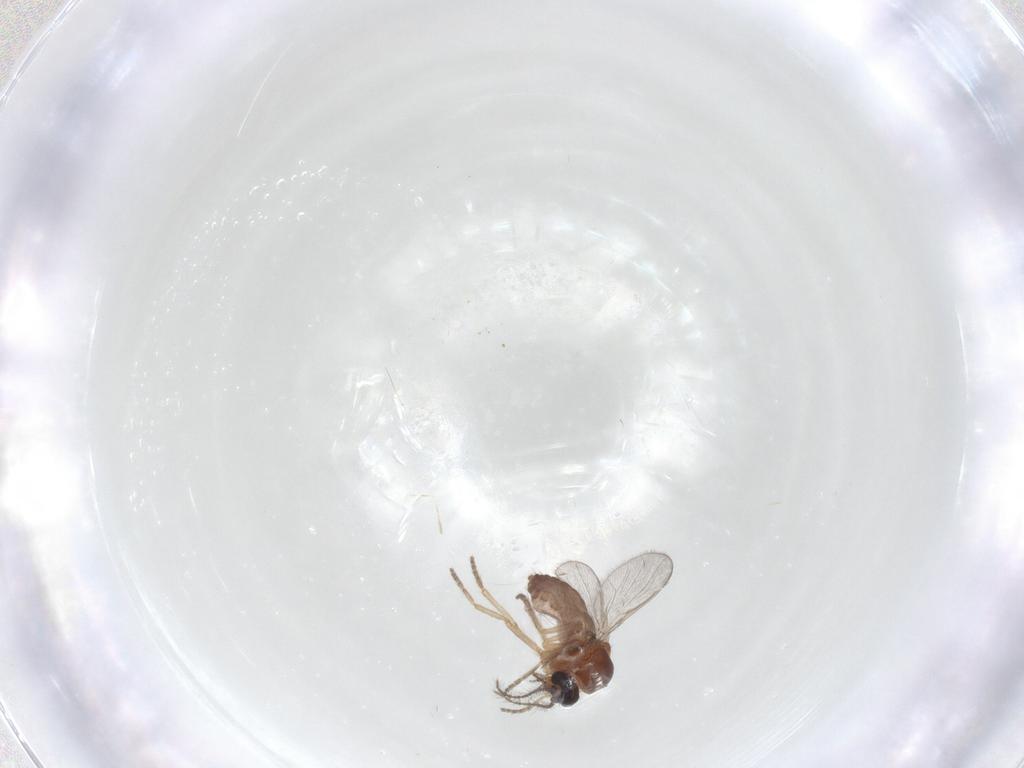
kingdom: Animalia
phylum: Arthropoda
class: Insecta
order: Diptera
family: Ceratopogonidae
